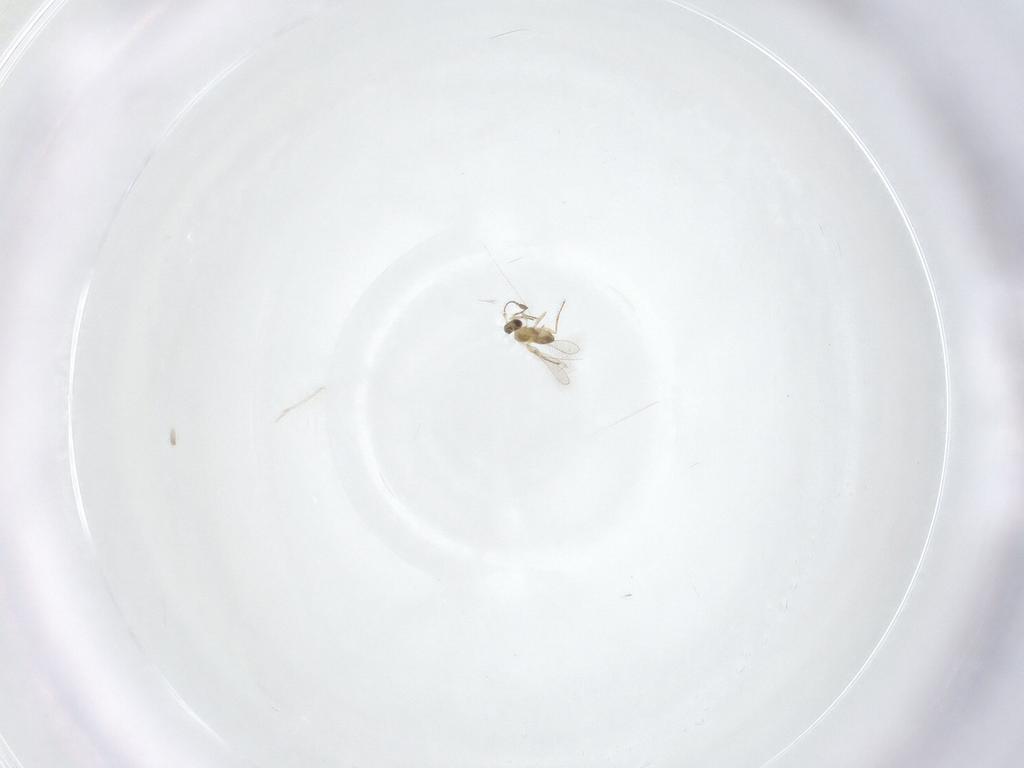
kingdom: Animalia
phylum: Arthropoda
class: Insecta
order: Hymenoptera
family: Mymaridae
